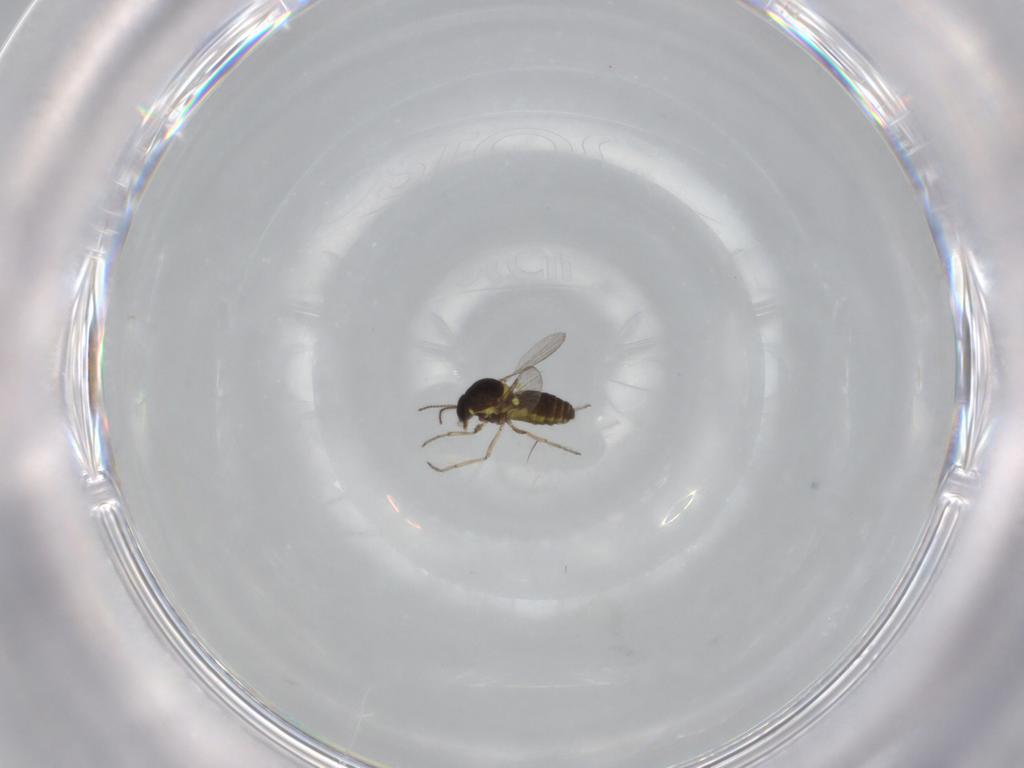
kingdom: Animalia
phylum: Arthropoda
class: Insecta
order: Diptera
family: Ceratopogonidae
